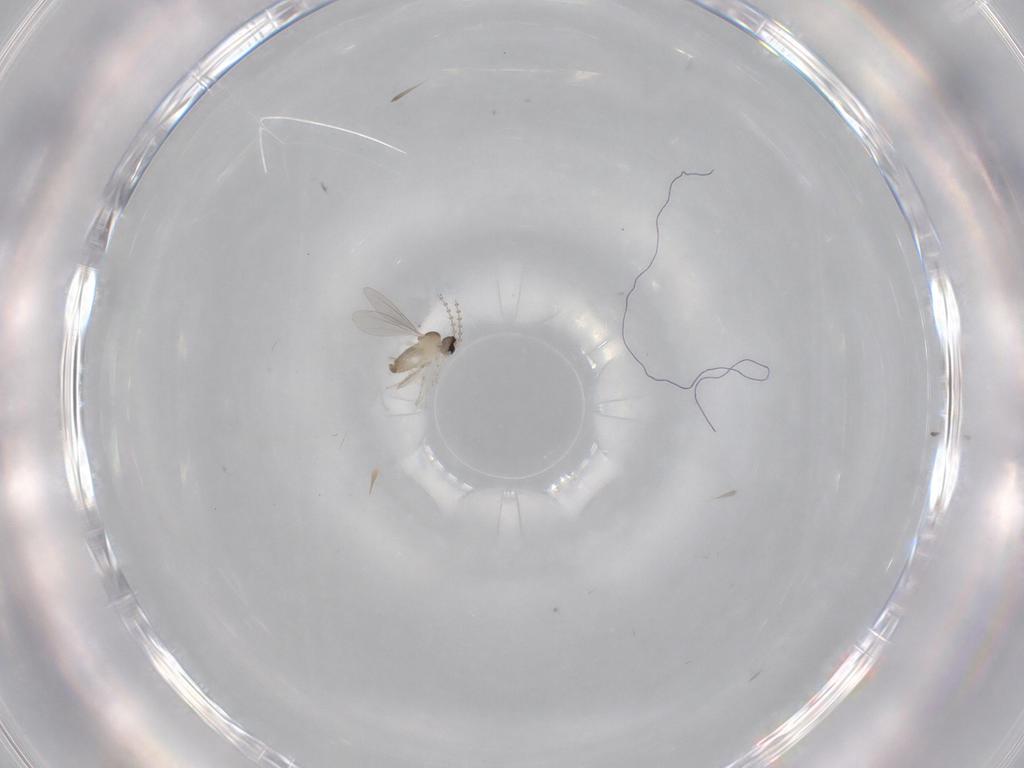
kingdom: Animalia
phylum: Arthropoda
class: Insecta
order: Diptera
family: Cecidomyiidae
